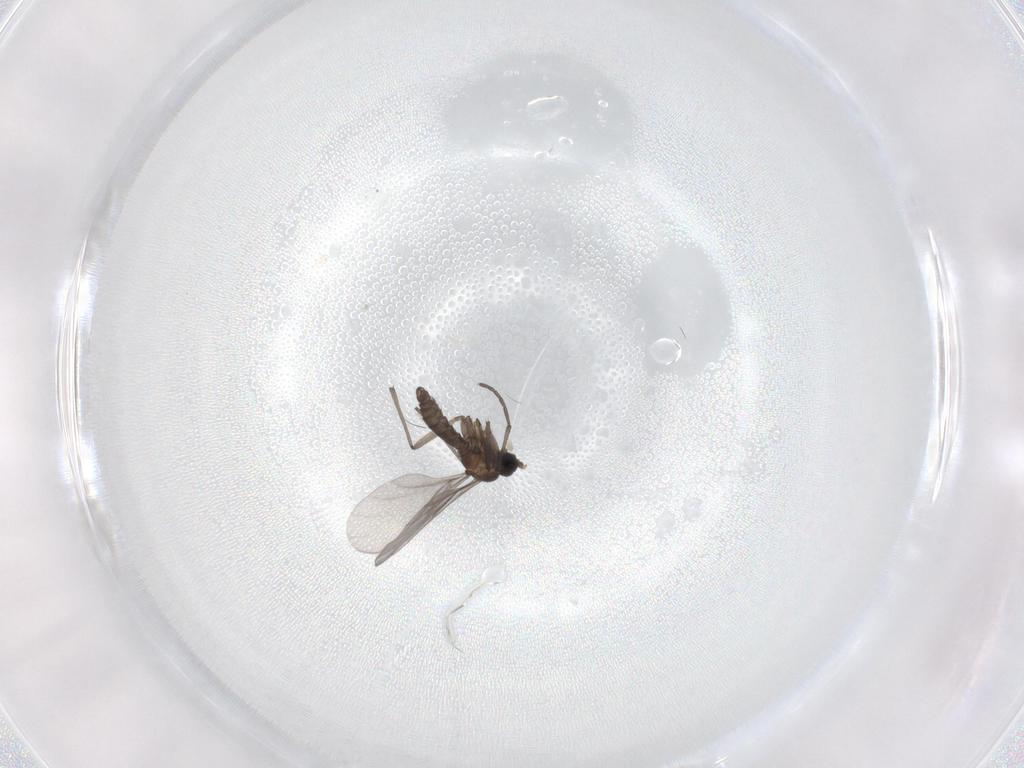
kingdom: Animalia
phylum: Arthropoda
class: Insecta
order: Diptera
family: Sciaridae
